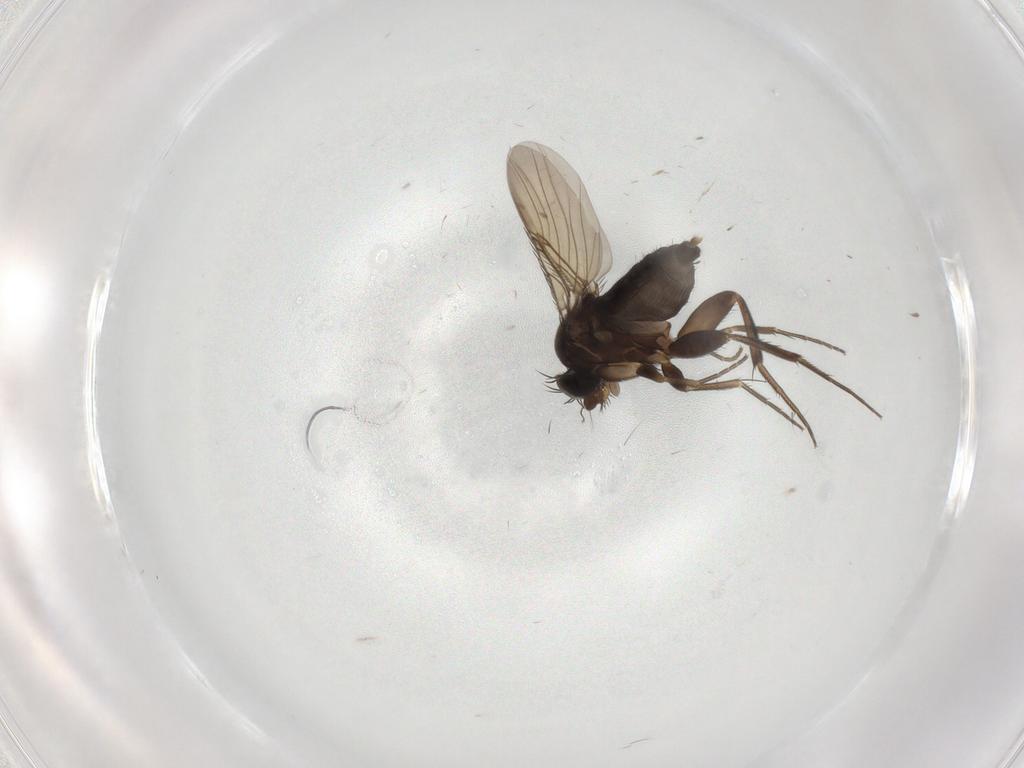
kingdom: Animalia
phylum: Arthropoda
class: Insecta
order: Diptera
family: Phoridae
